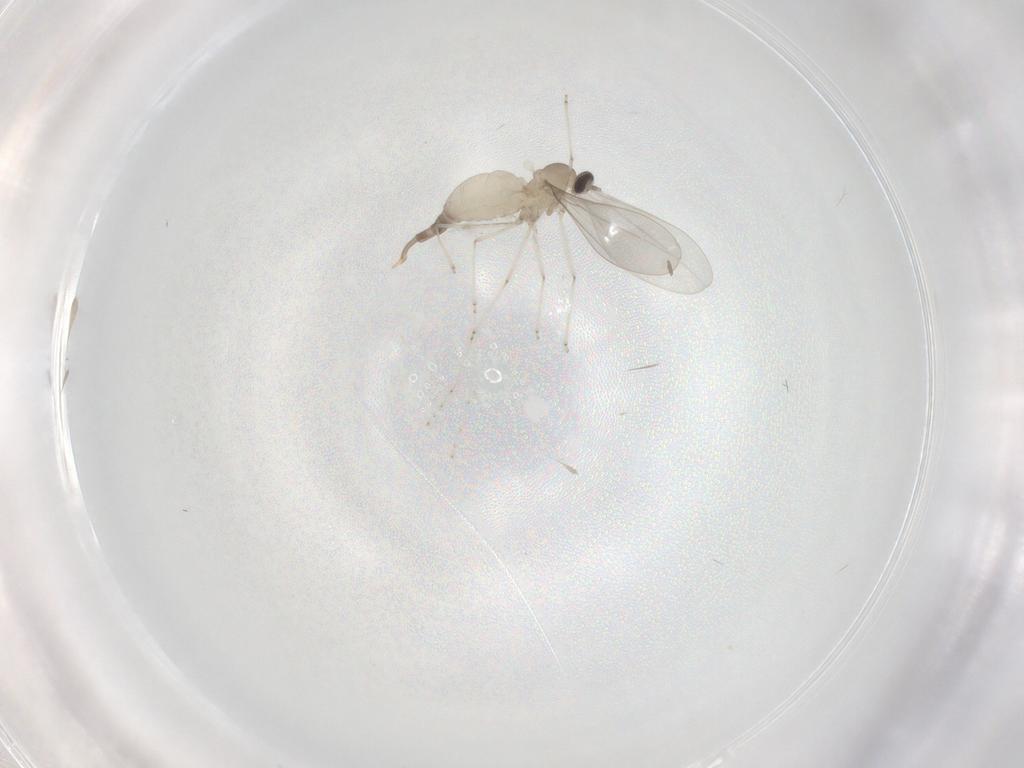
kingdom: Animalia
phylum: Arthropoda
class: Insecta
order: Diptera
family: Cecidomyiidae
